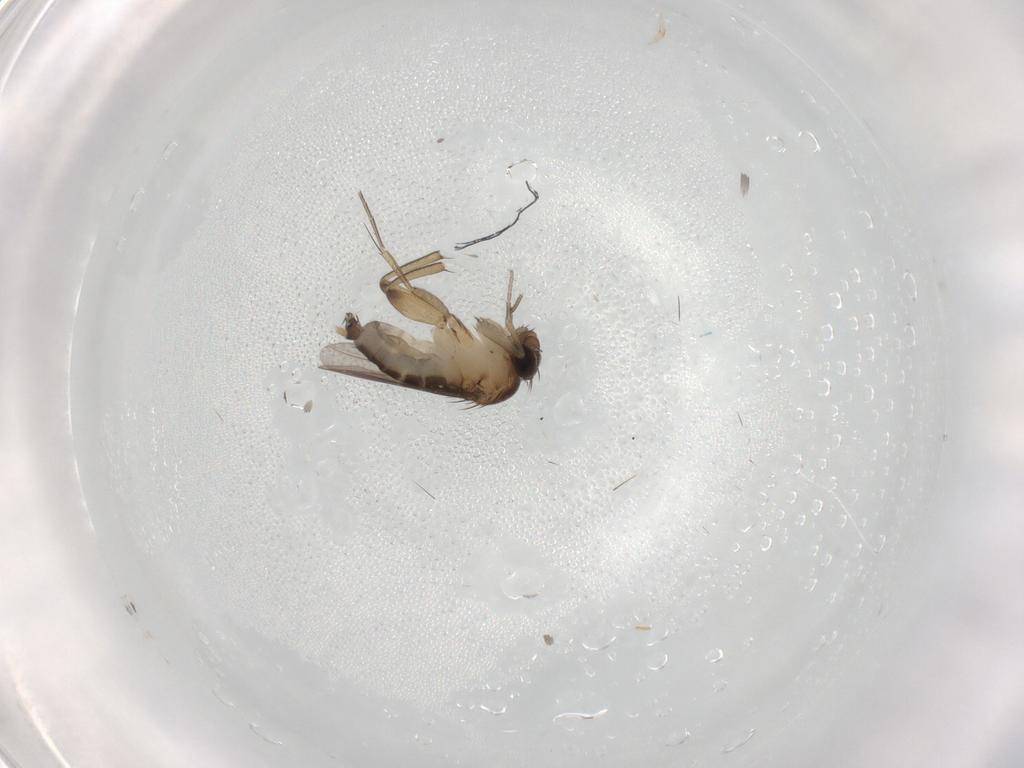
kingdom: Animalia
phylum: Arthropoda
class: Insecta
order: Diptera
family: Phoridae
